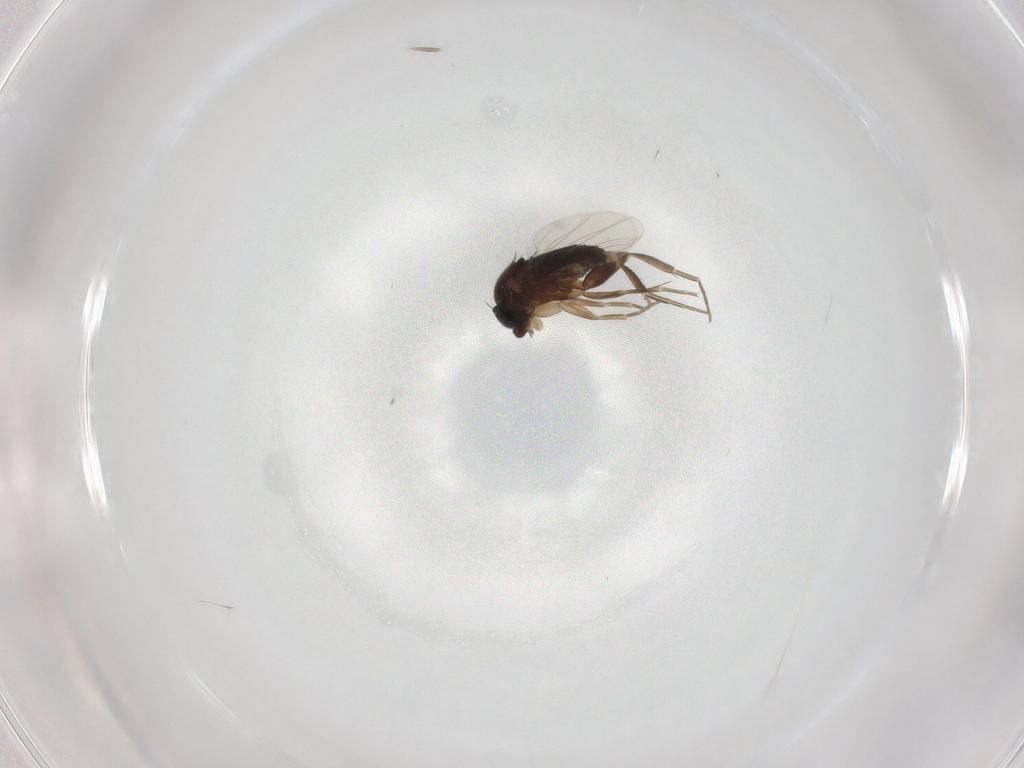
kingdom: Animalia
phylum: Arthropoda
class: Insecta
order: Diptera
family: Phoridae
